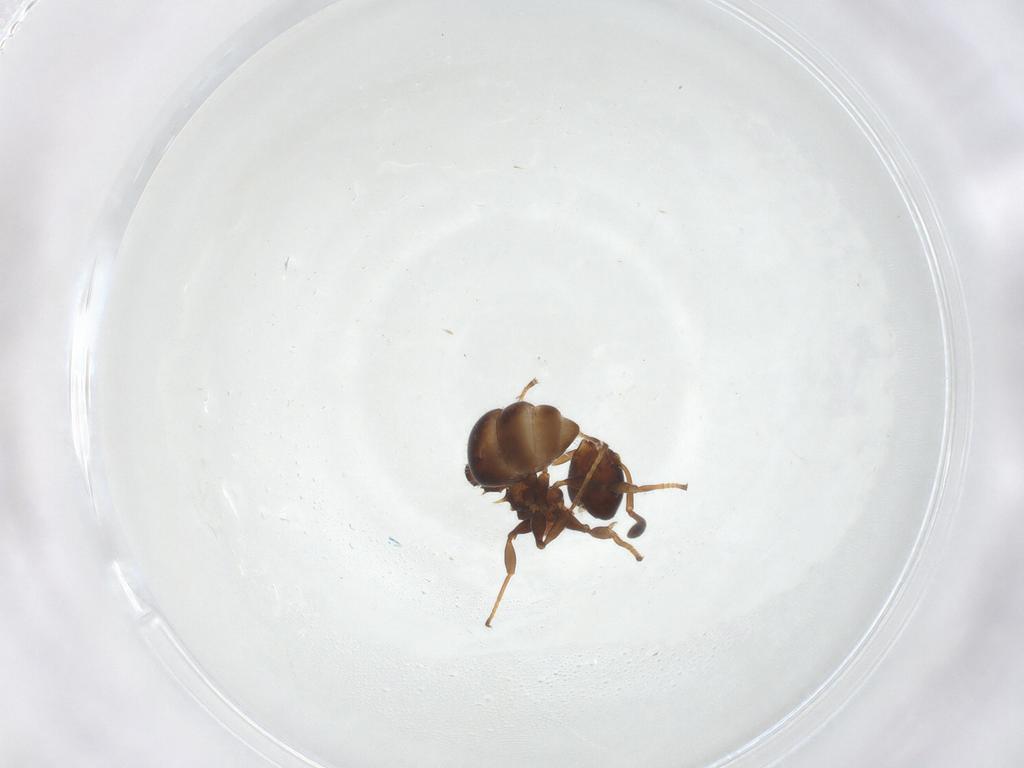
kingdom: Animalia
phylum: Arthropoda
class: Insecta
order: Hymenoptera
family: Formicidae
